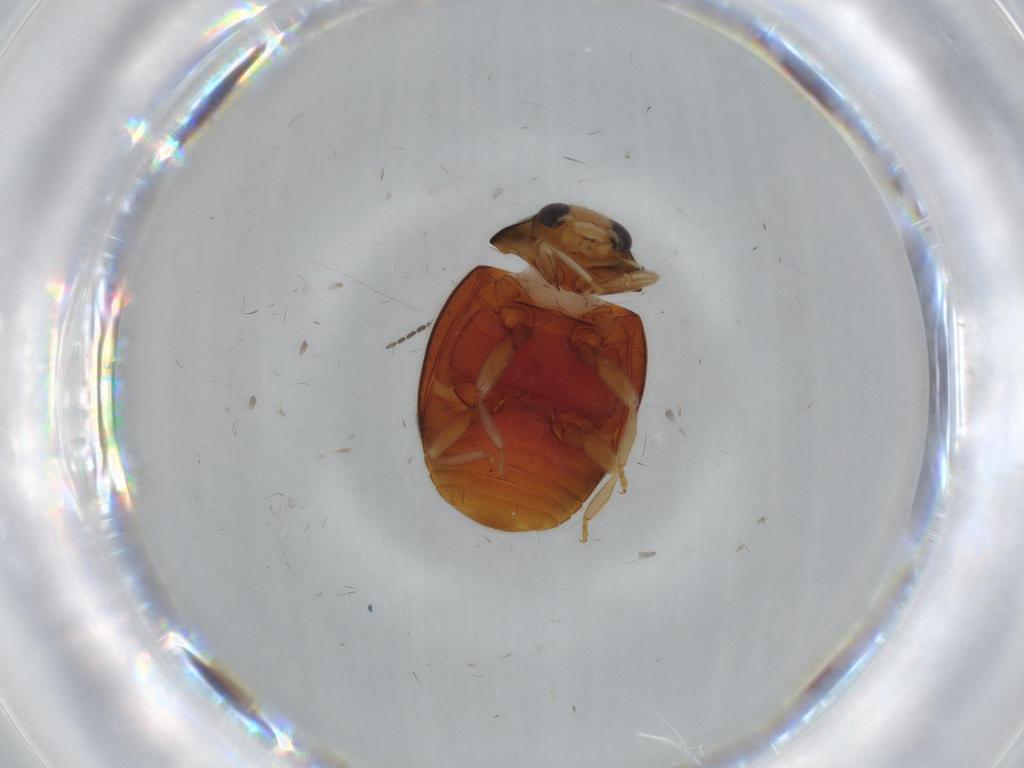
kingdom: Animalia
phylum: Arthropoda
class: Insecta
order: Coleoptera
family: Coccinellidae
